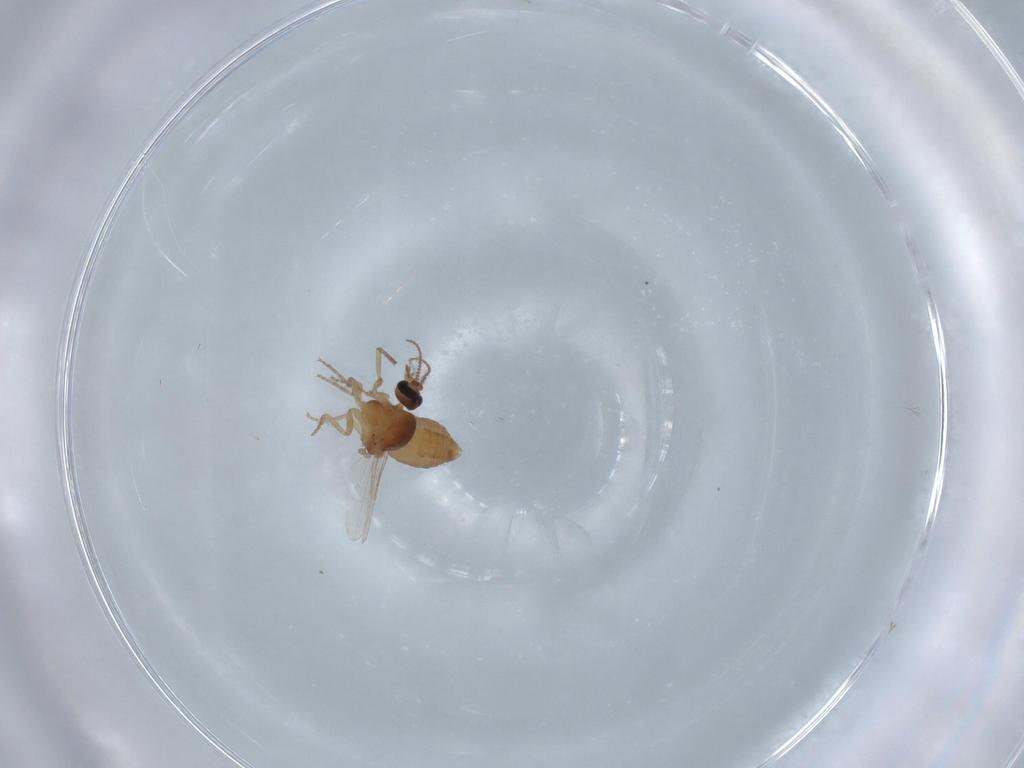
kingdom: Animalia
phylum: Arthropoda
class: Insecta
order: Diptera
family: Ceratopogonidae
